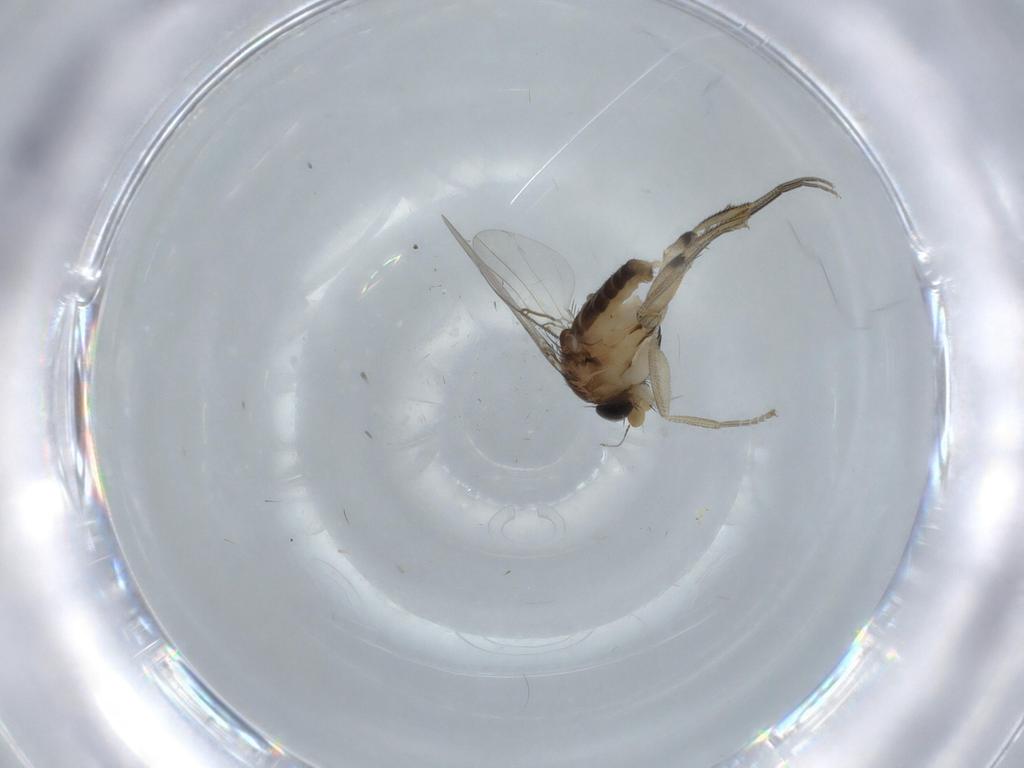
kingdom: Animalia
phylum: Arthropoda
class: Insecta
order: Diptera
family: Phoridae
